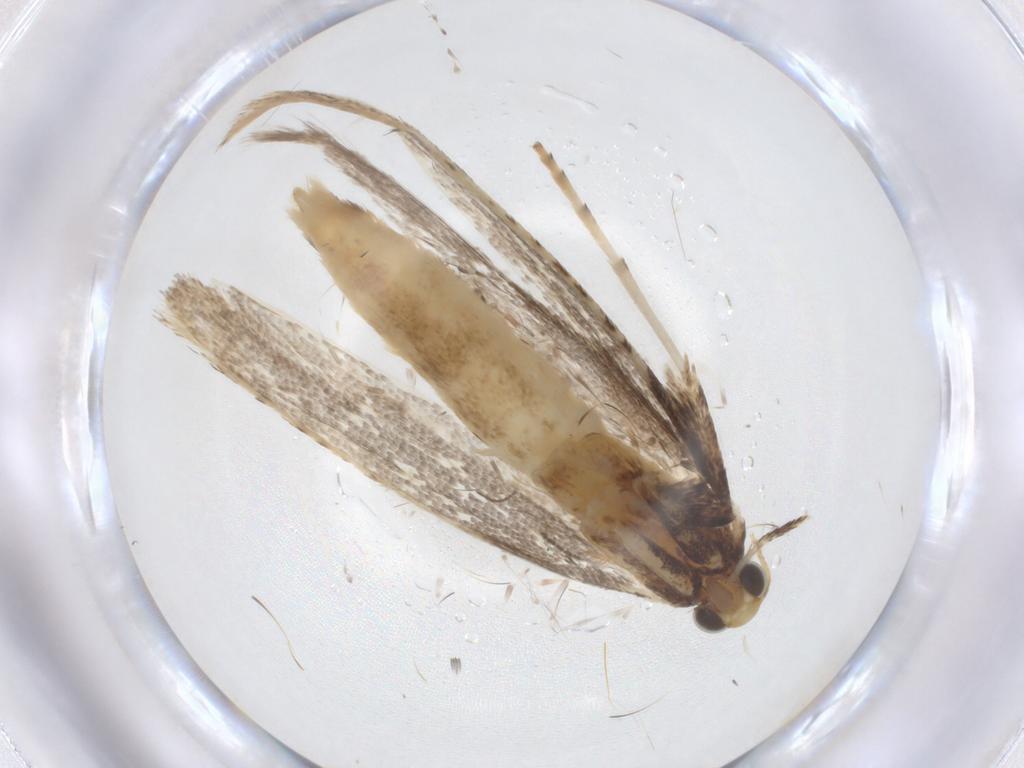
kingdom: Animalia
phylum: Arthropoda
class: Insecta
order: Lepidoptera
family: Gracillariidae
